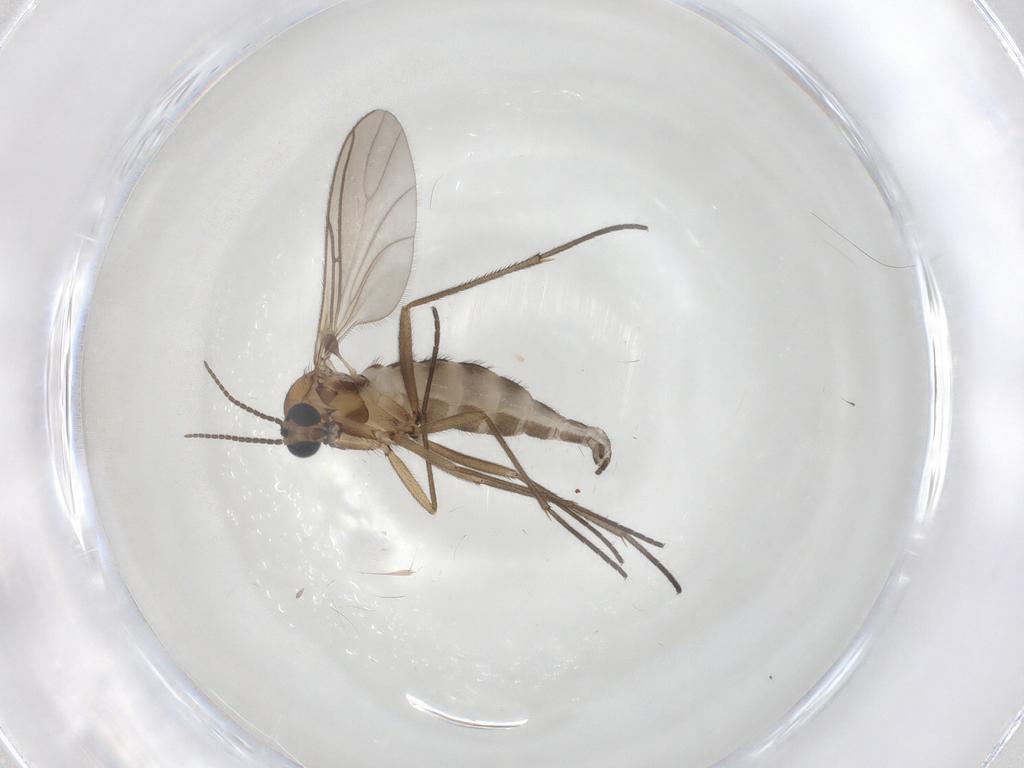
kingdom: Animalia
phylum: Arthropoda
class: Insecta
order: Diptera
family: Sciaridae
